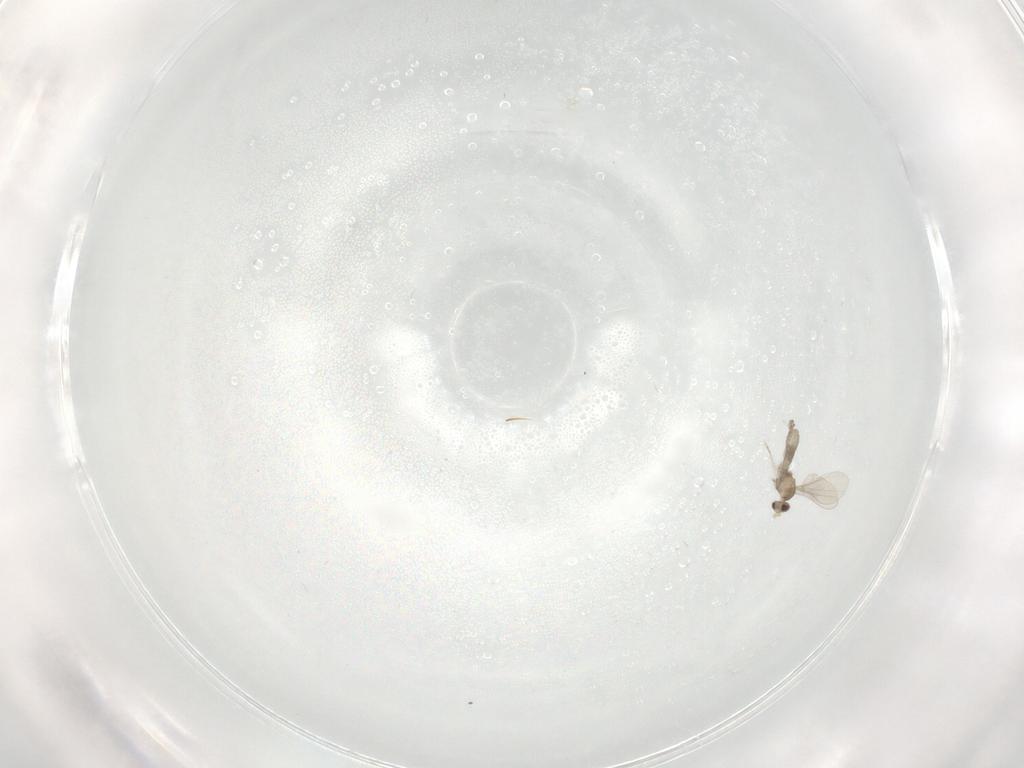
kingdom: Animalia
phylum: Arthropoda
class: Insecta
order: Diptera
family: Cecidomyiidae
